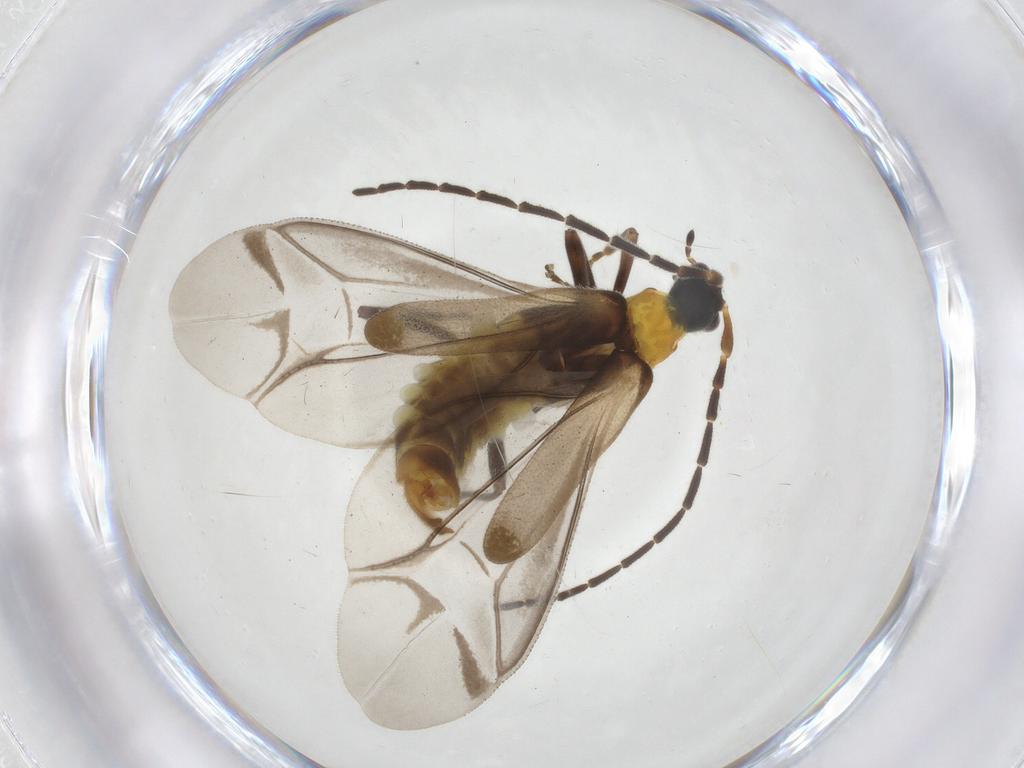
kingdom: Animalia
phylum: Arthropoda
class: Insecta
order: Coleoptera
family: Cantharidae
